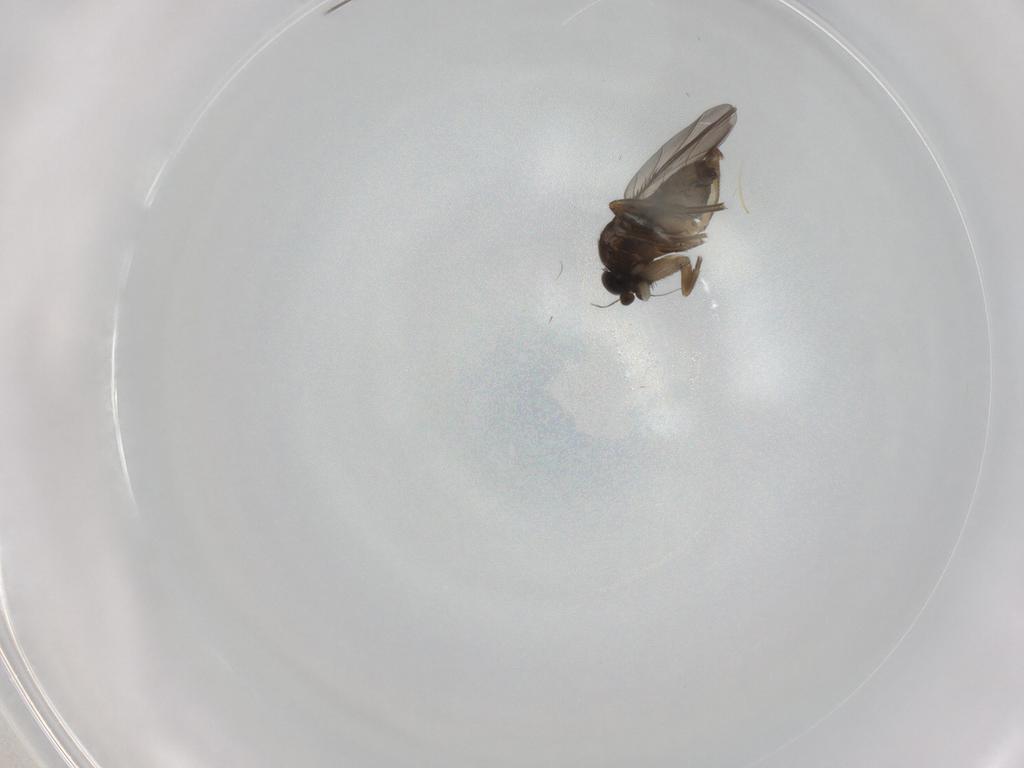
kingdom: Animalia
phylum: Arthropoda
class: Insecta
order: Diptera
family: Phoridae
